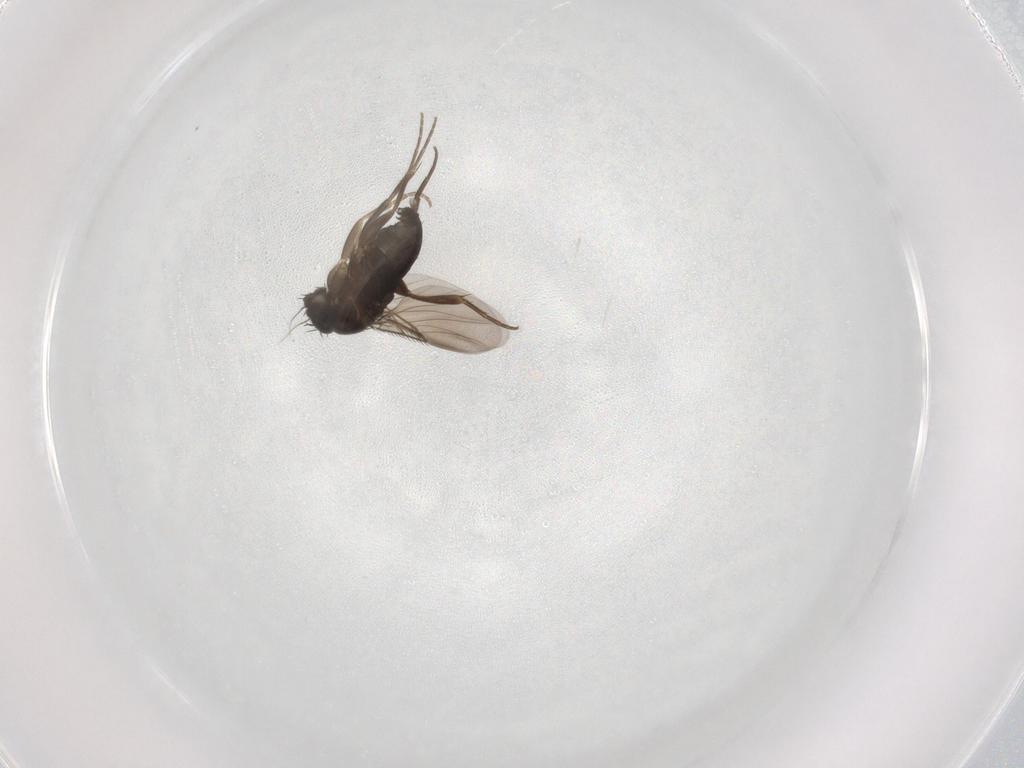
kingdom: Animalia
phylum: Arthropoda
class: Insecta
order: Diptera
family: Phoridae
